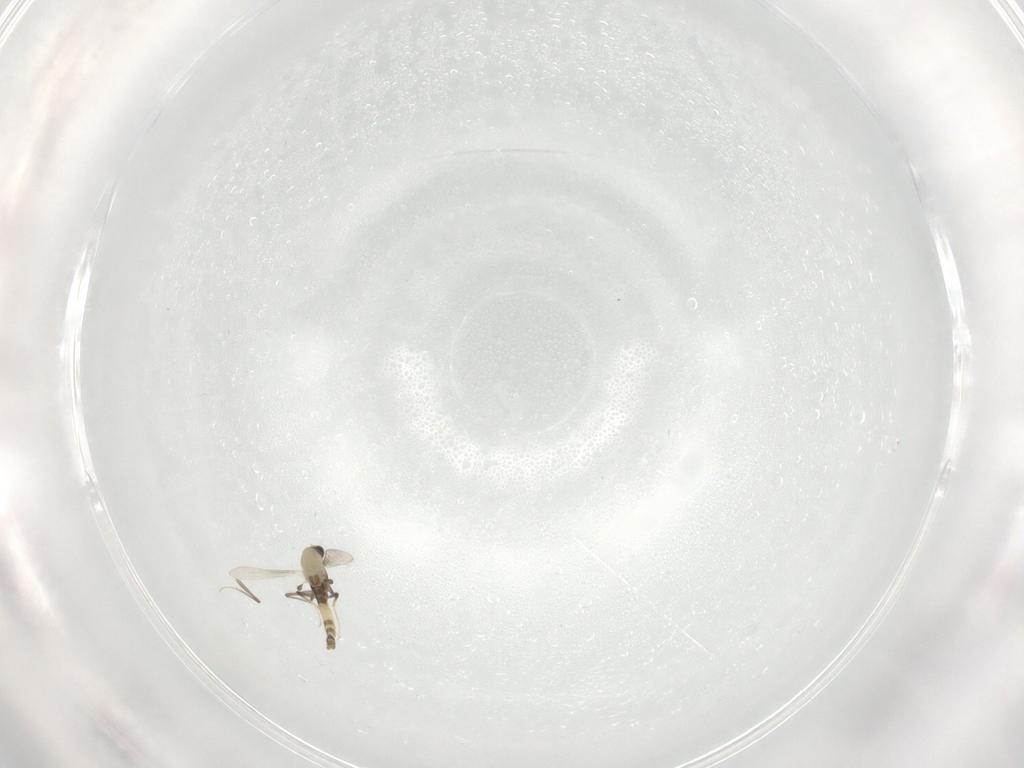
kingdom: Animalia
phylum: Arthropoda
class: Insecta
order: Diptera
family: Chironomidae
